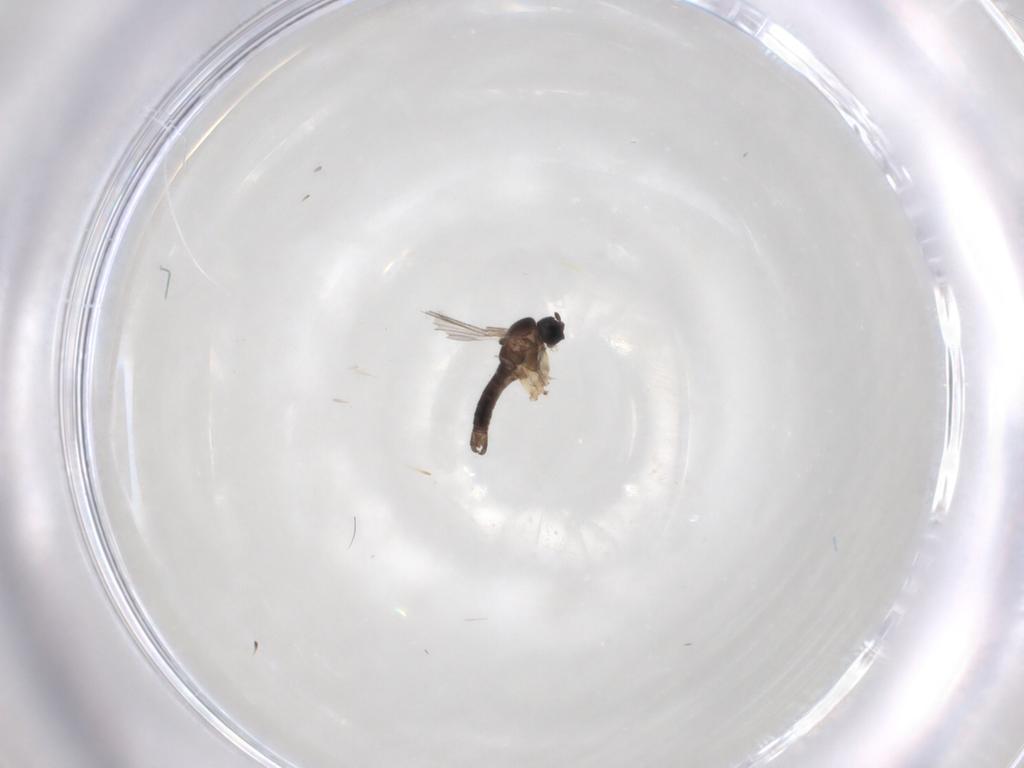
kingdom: Animalia
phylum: Arthropoda
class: Insecta
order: Diptera
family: Sciaridae
